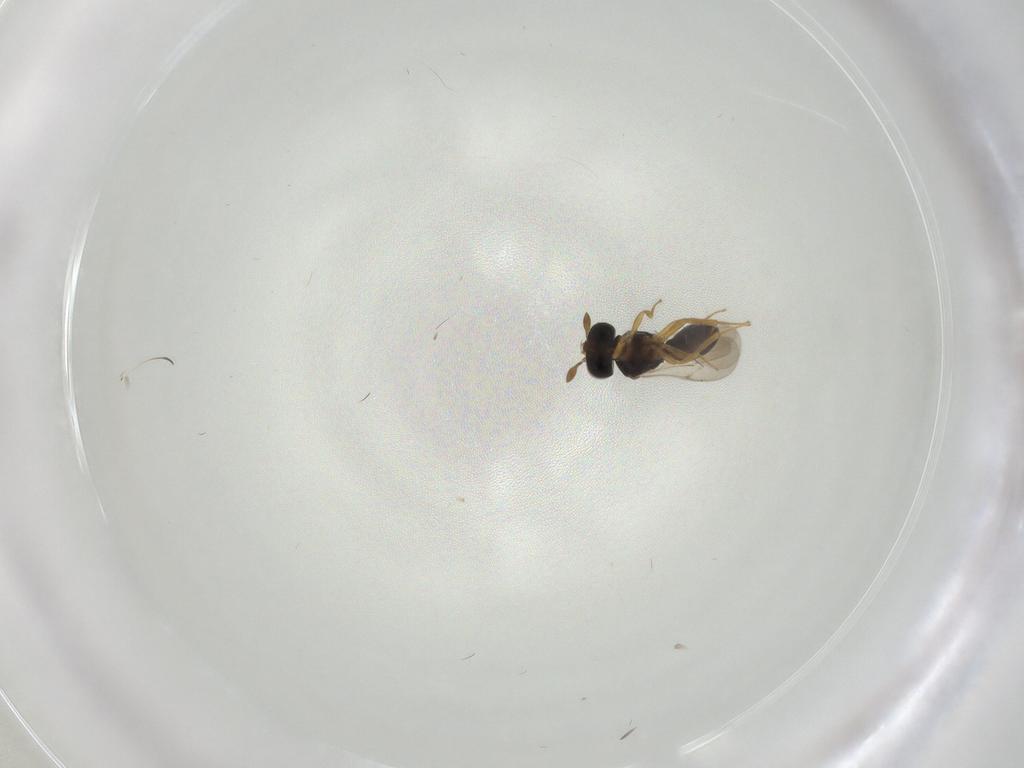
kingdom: Animalia
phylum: Arthropoda
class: Insecta
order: Hymenoptera
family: Scelionidae
